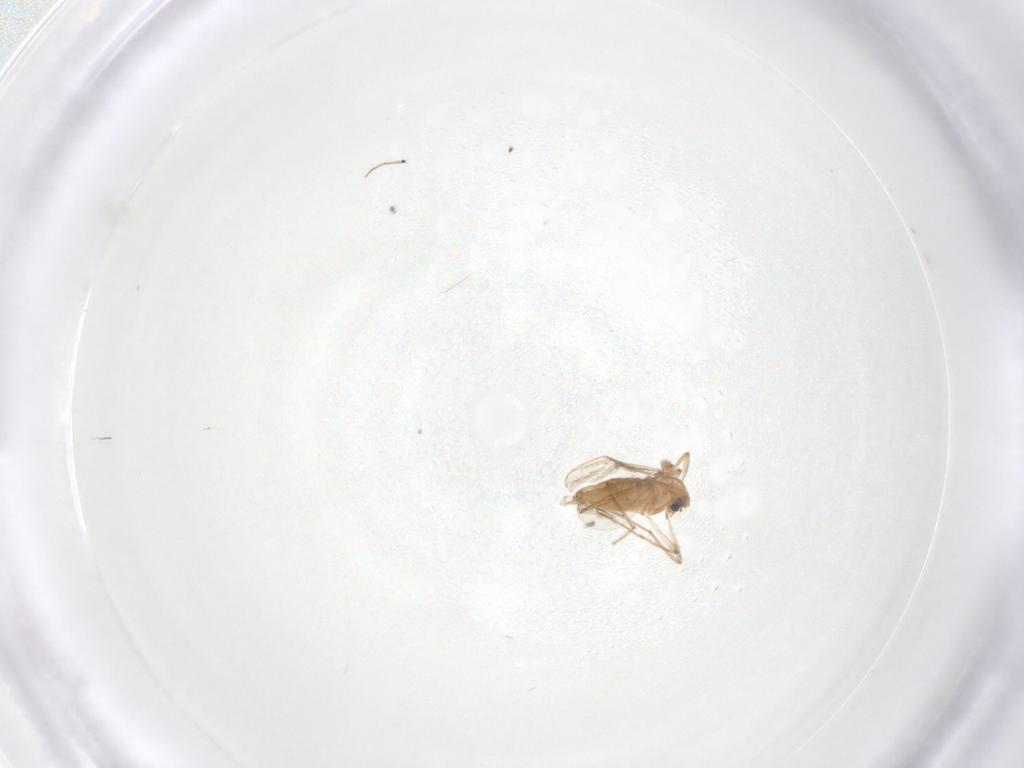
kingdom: Animalia
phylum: Arthropoda
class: Insecta
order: Diptera
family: Chironomidae
